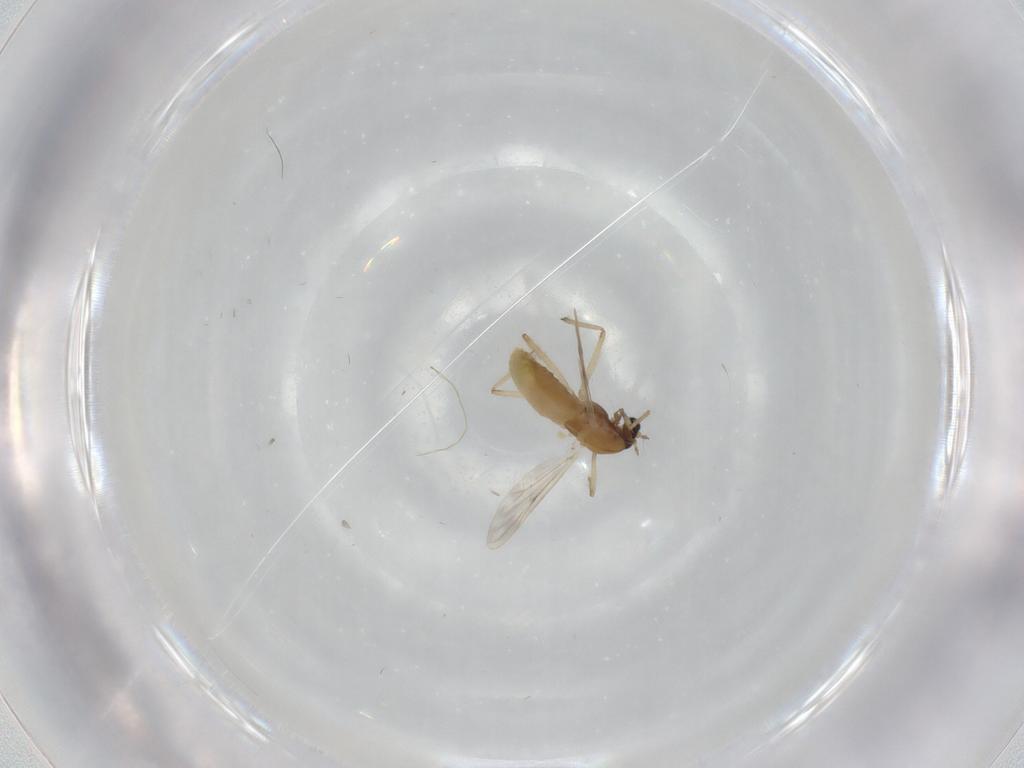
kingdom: Animalia
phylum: Arthropoda
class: Insecta
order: Diptera
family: Chironomidae
